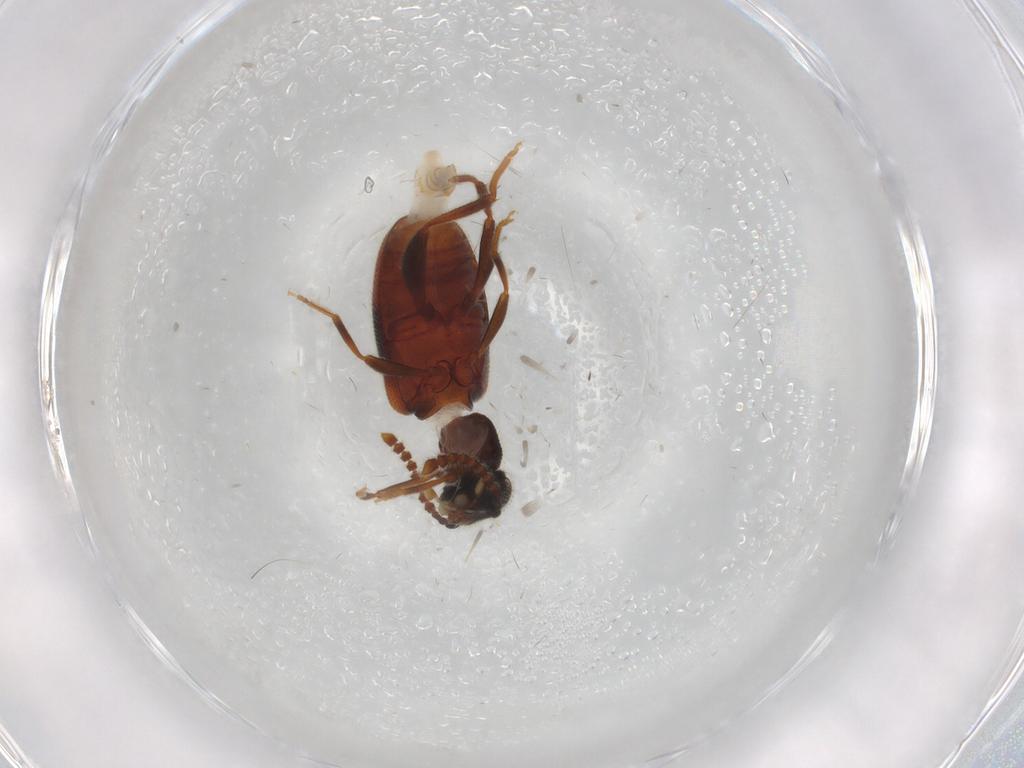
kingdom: Animalia
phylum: Arthropoda
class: Insecta
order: Coleoptera
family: Aderidae
